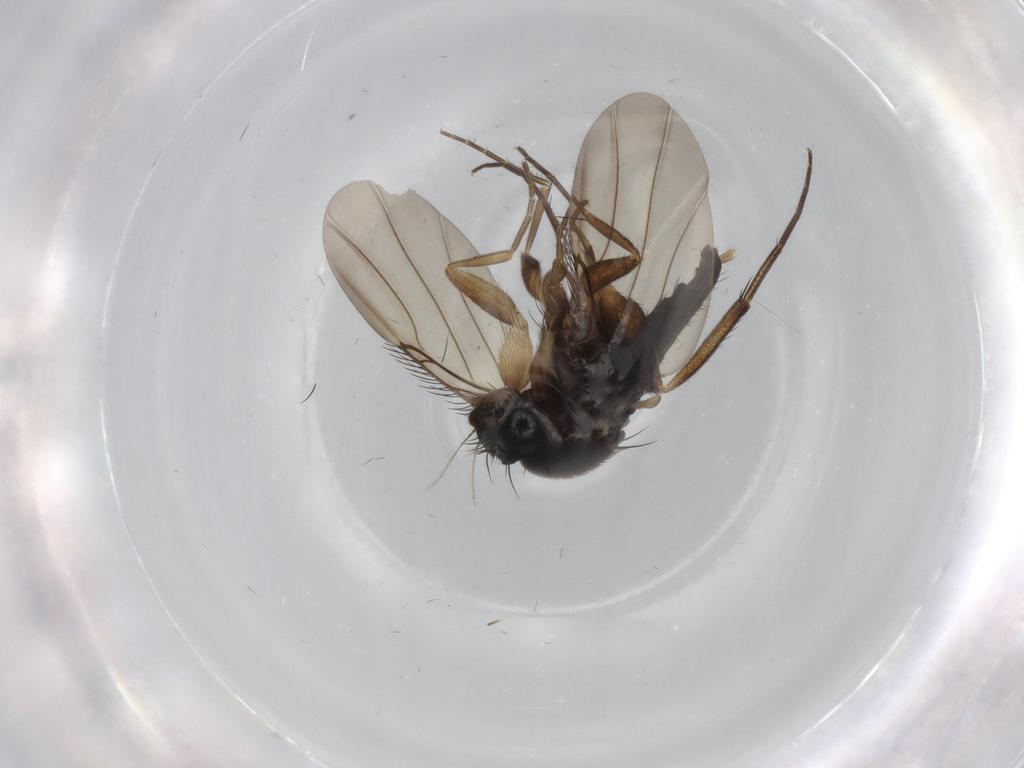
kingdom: Animalia
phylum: Arthropoda
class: Insecta
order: Diptera
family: Phoridae
